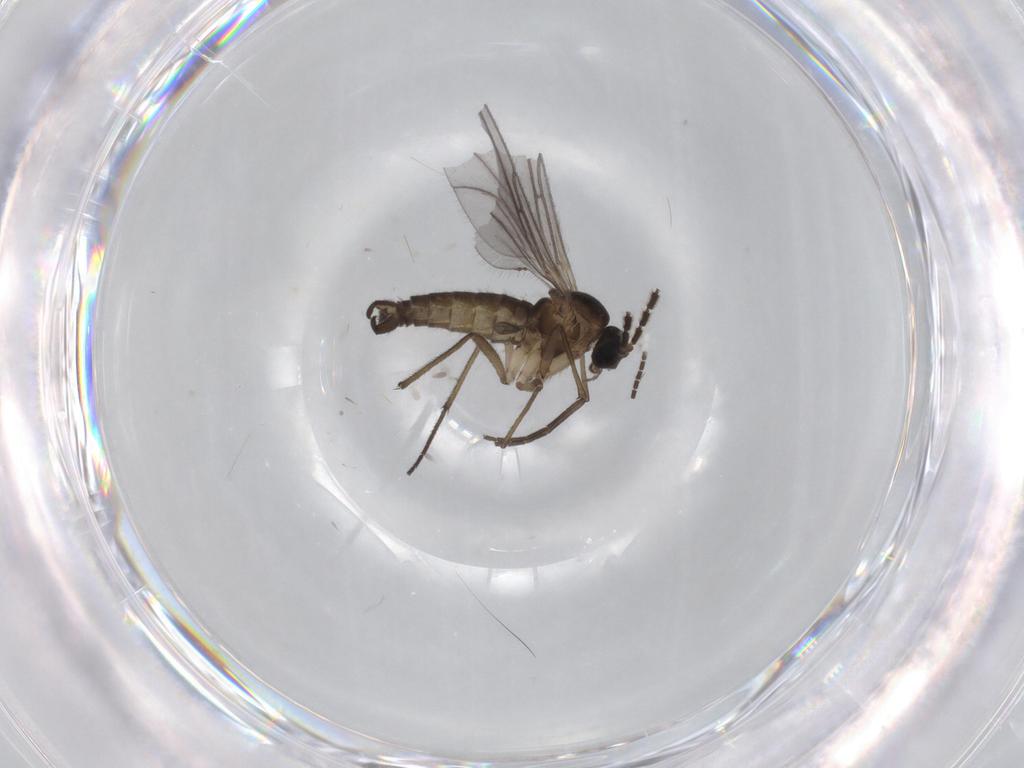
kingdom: Animalia
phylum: Arthropoda
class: Insecta
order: Diptera
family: Sciaridae
